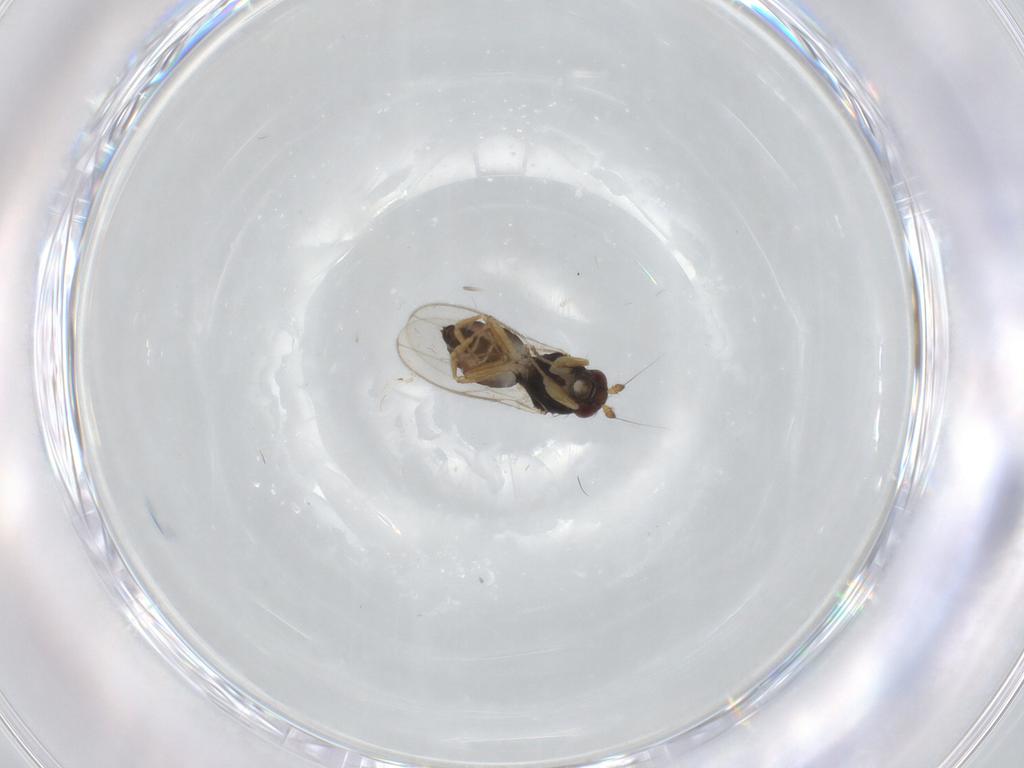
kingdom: Animalia
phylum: Arthropoda
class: Insecta
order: Diptera
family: Sphaeroceridae
